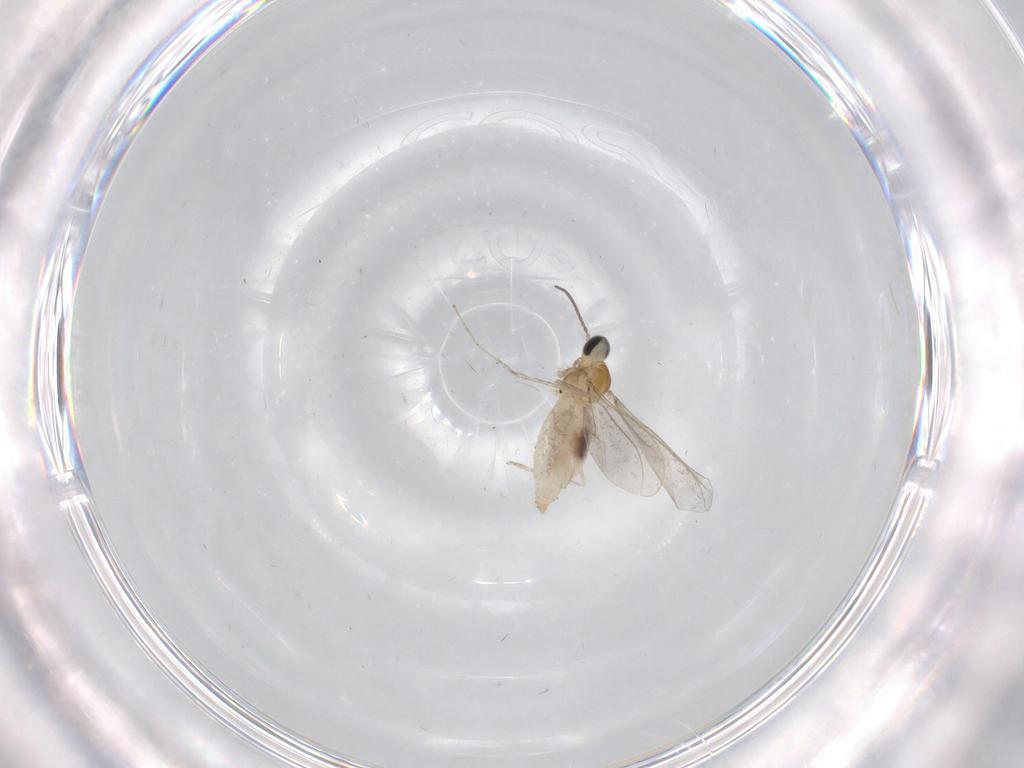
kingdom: Animalia
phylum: Arthropoda
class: Insecta
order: Diptera
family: Cecidomyiidae
